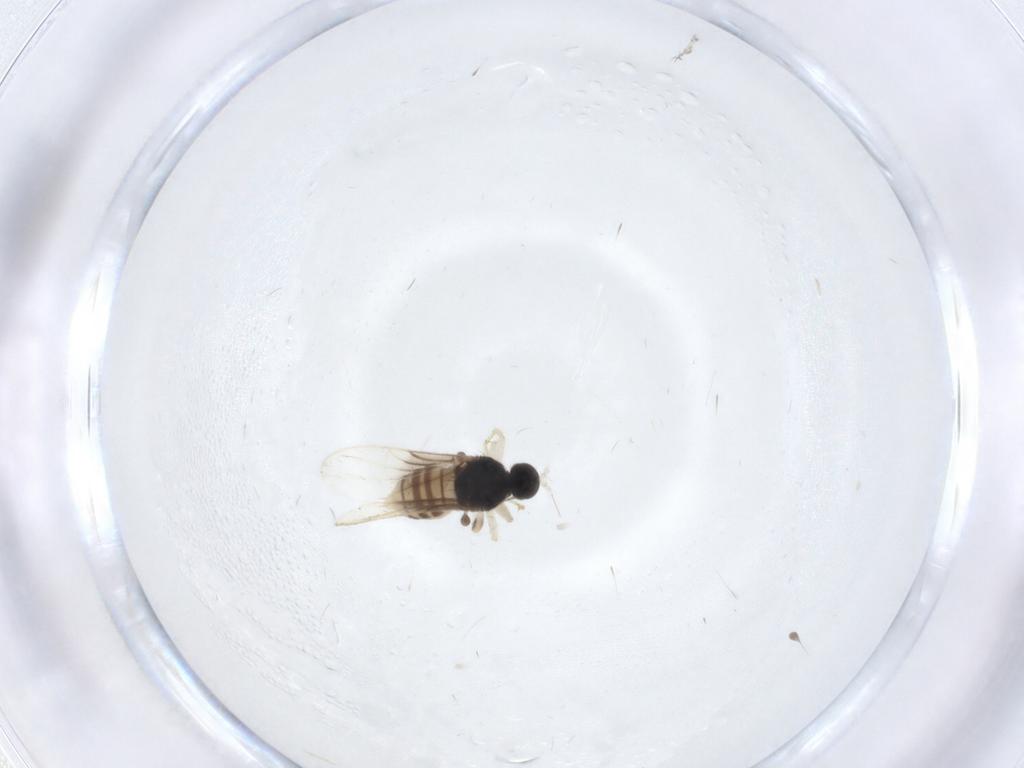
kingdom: Animalia
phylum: Arthropoda
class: Insecta
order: Diptera
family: Hybotidae
